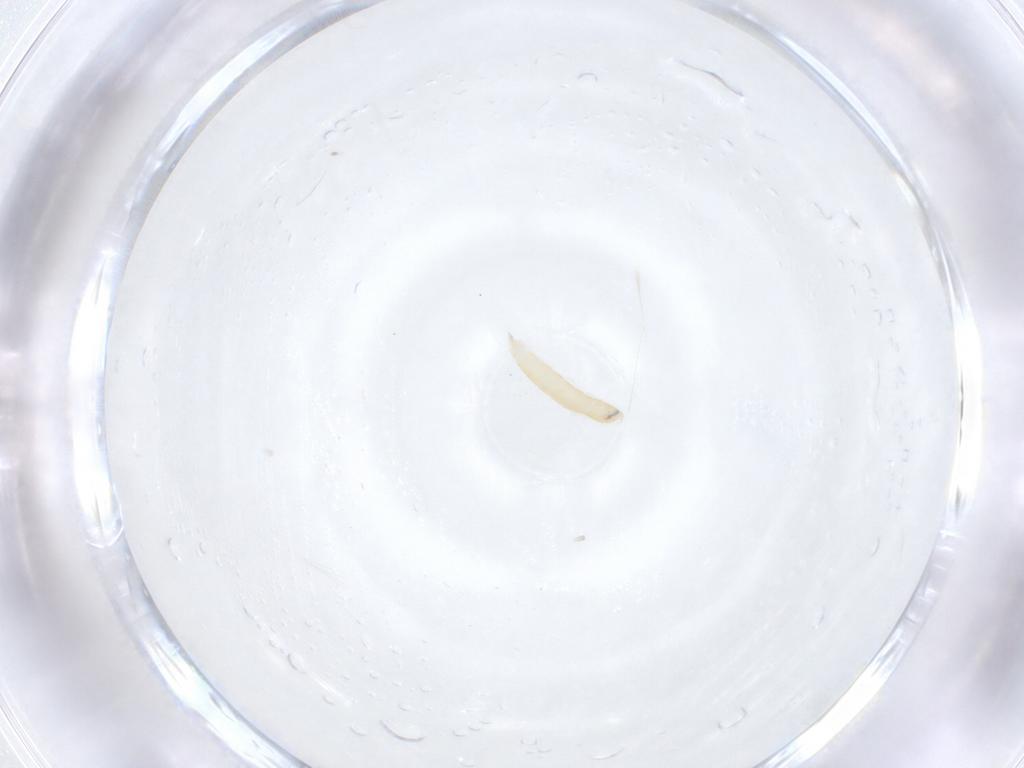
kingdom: Animalia
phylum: Arthropoda
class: Insecta
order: Diptera
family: Tachinidae
